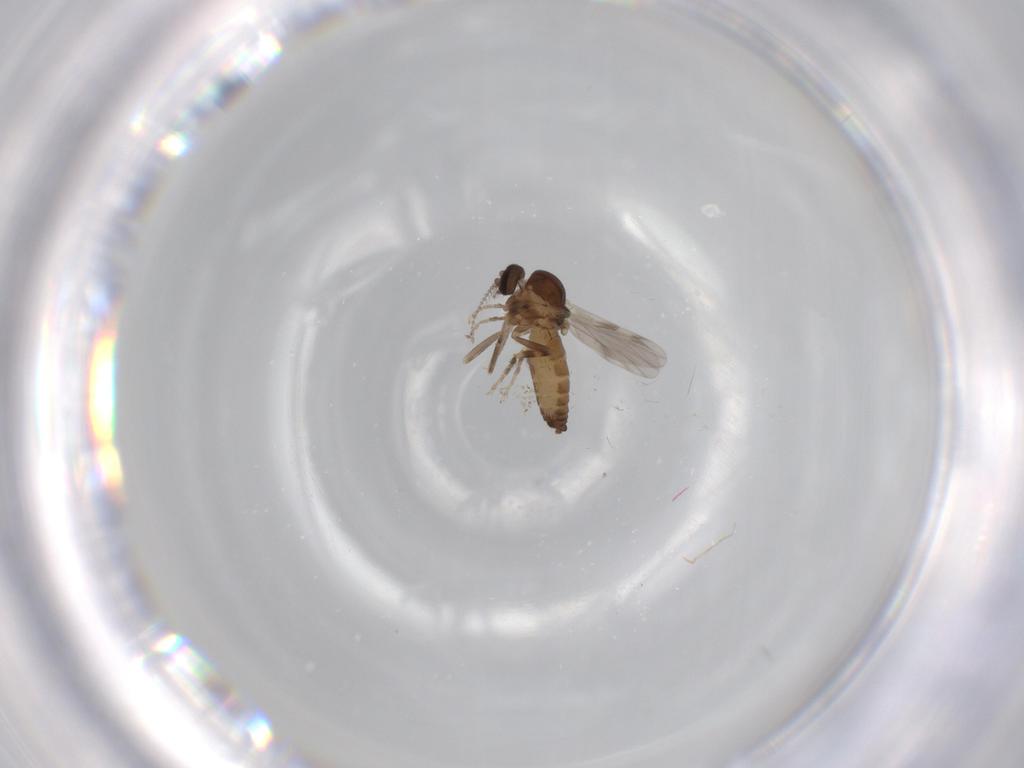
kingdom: Animalia
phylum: Arthropoda
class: Insecta
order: Diptera
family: Ceratopogonidae
